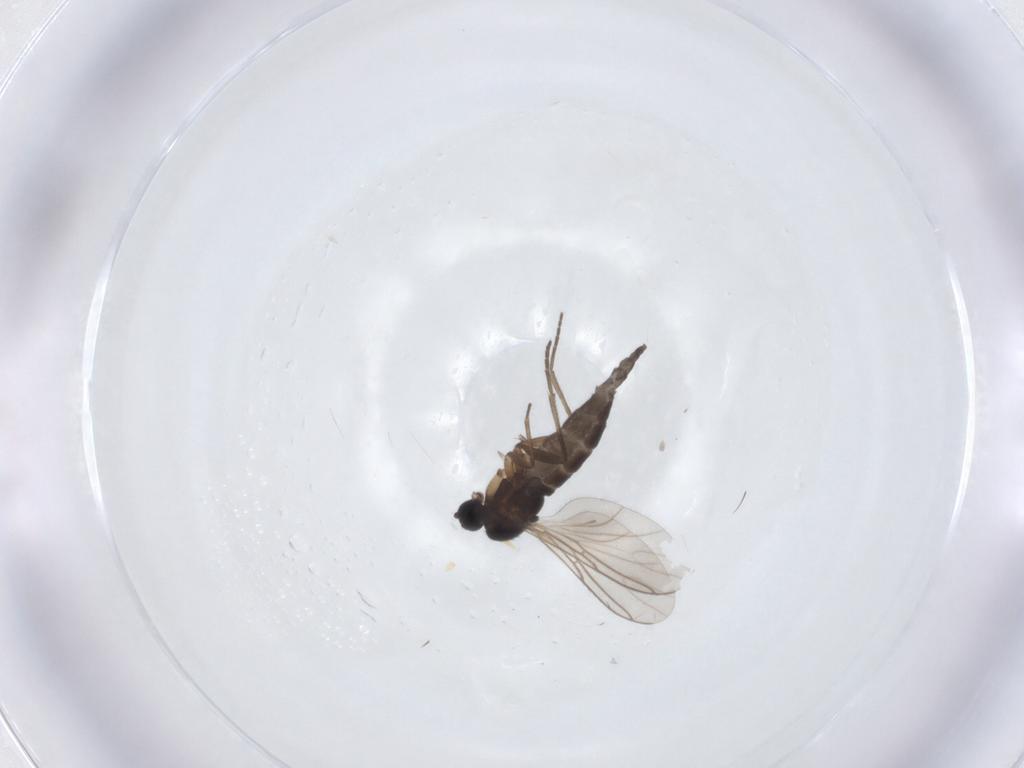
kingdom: Animalia
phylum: Arthropoda
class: Insecta
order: Diptera
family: Sciaridae
